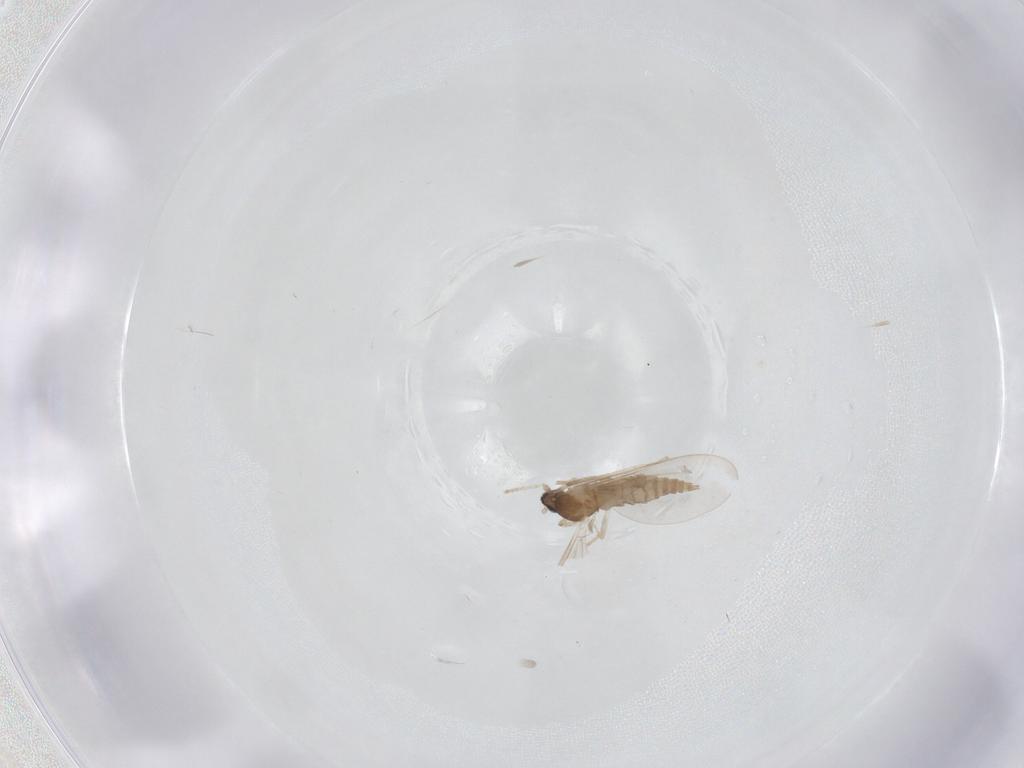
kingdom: Animalia
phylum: Arthropoda
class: Insecta
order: Diptera
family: Cecidomyiidae
